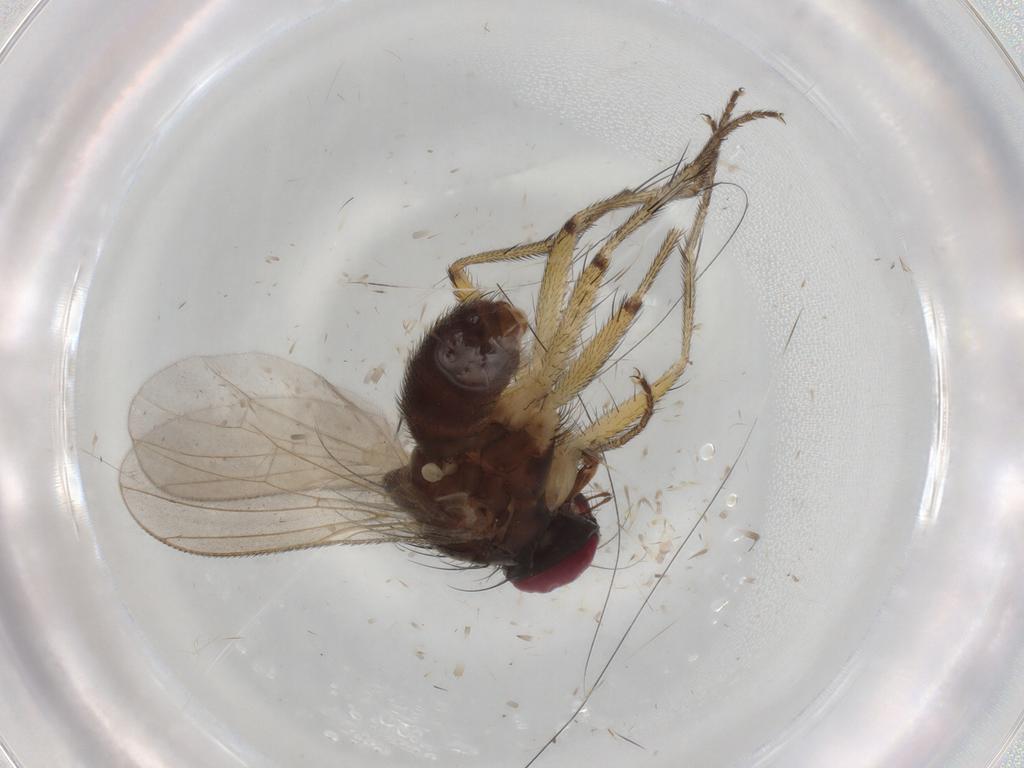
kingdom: Animalia
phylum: Arthropoda
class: Insecta
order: Diptera
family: Muscidae
